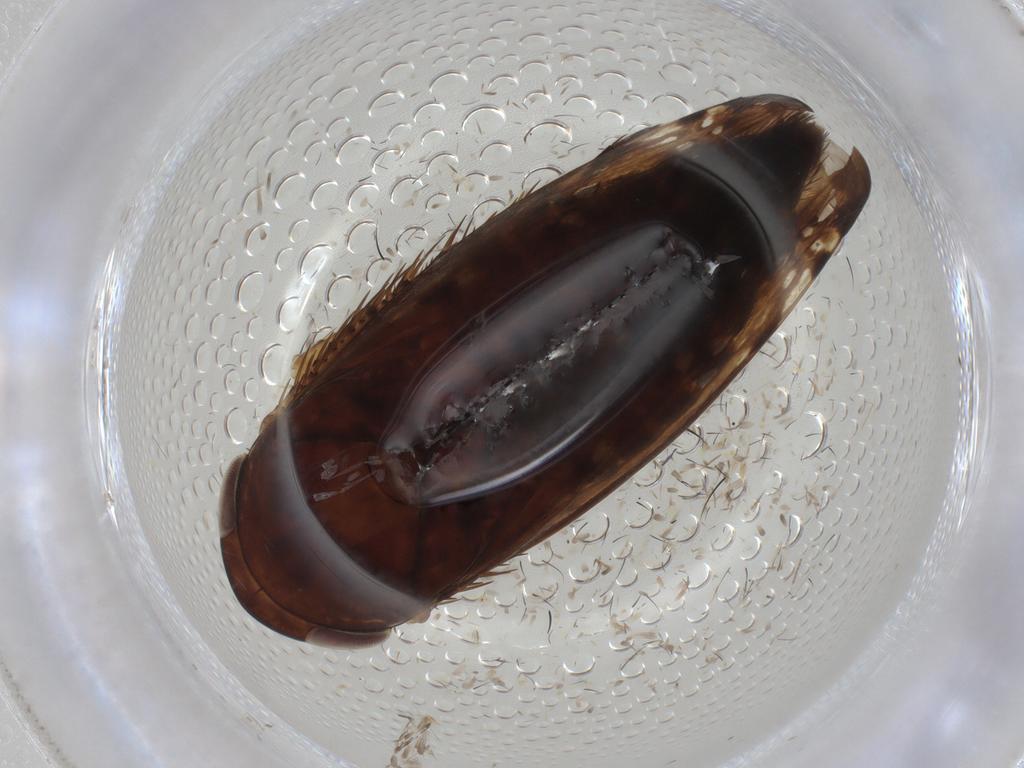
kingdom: Animalia
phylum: Arthropoda
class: Insecta
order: Hemiptera
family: Cicadellidae
